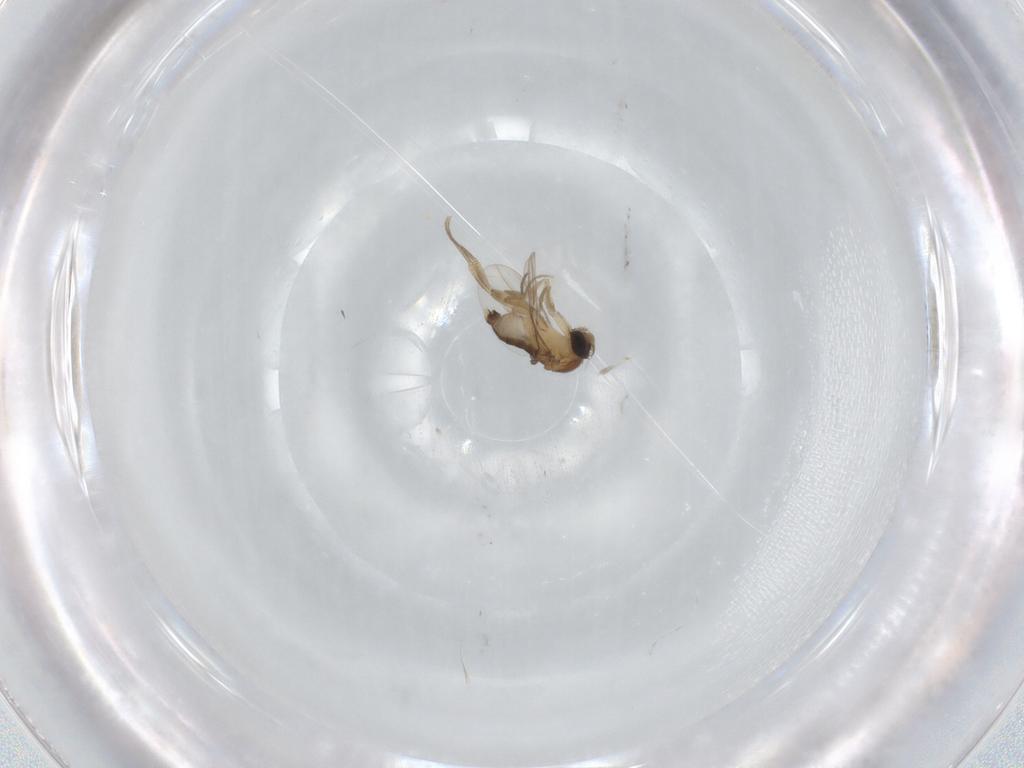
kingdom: Animalia
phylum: Arthropoda
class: Insecta
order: Diptera
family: Phoridae
